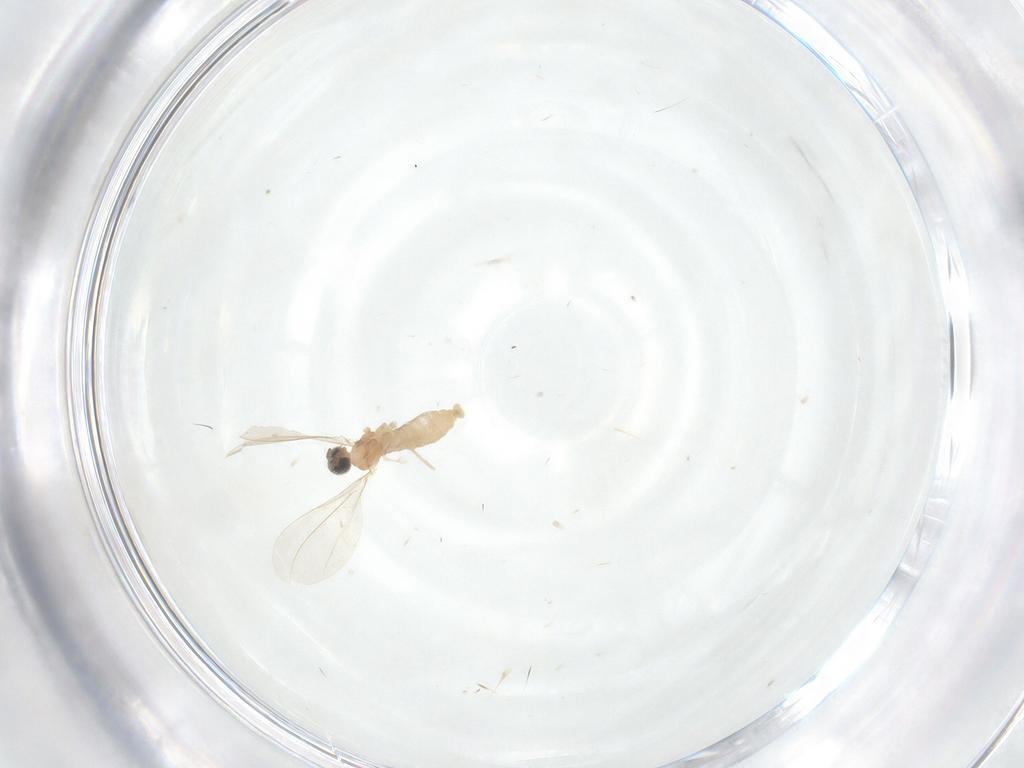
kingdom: Animalia
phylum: Arthropoda
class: Insecta
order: Diptera
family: Cecidomyiidae
